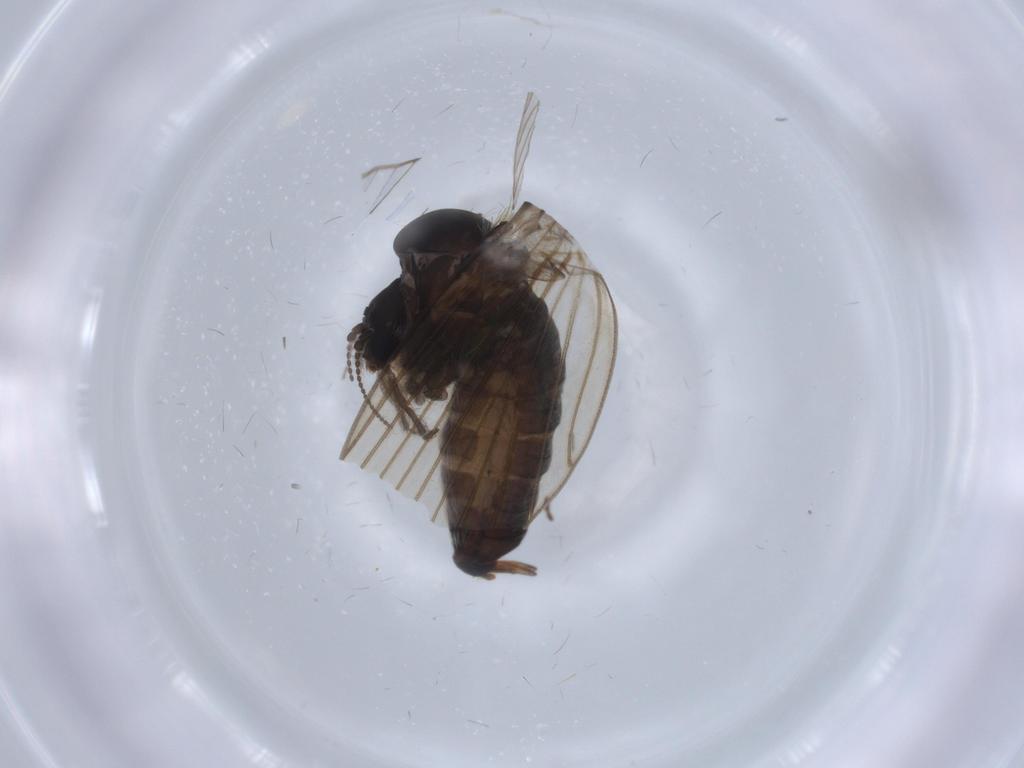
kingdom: Animalia
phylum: Arthropoda
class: Insecta
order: Diptera
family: Psychodidae
